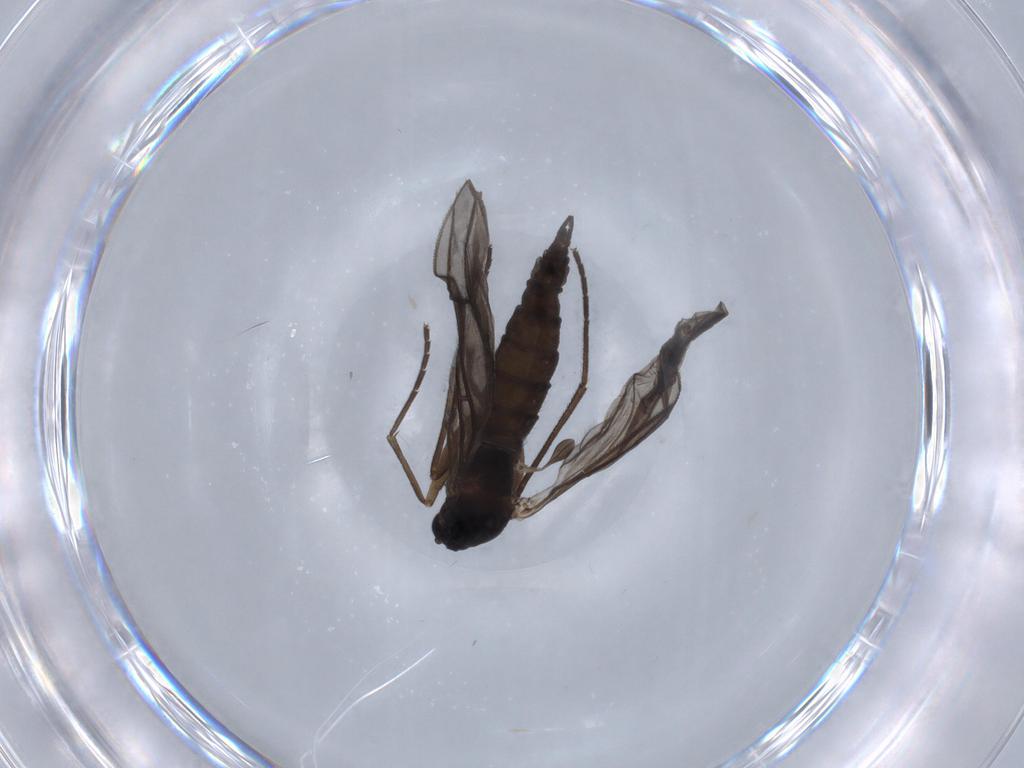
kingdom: Animalia
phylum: Arthropoda
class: Insecta
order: Diptera
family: Sciaridae
